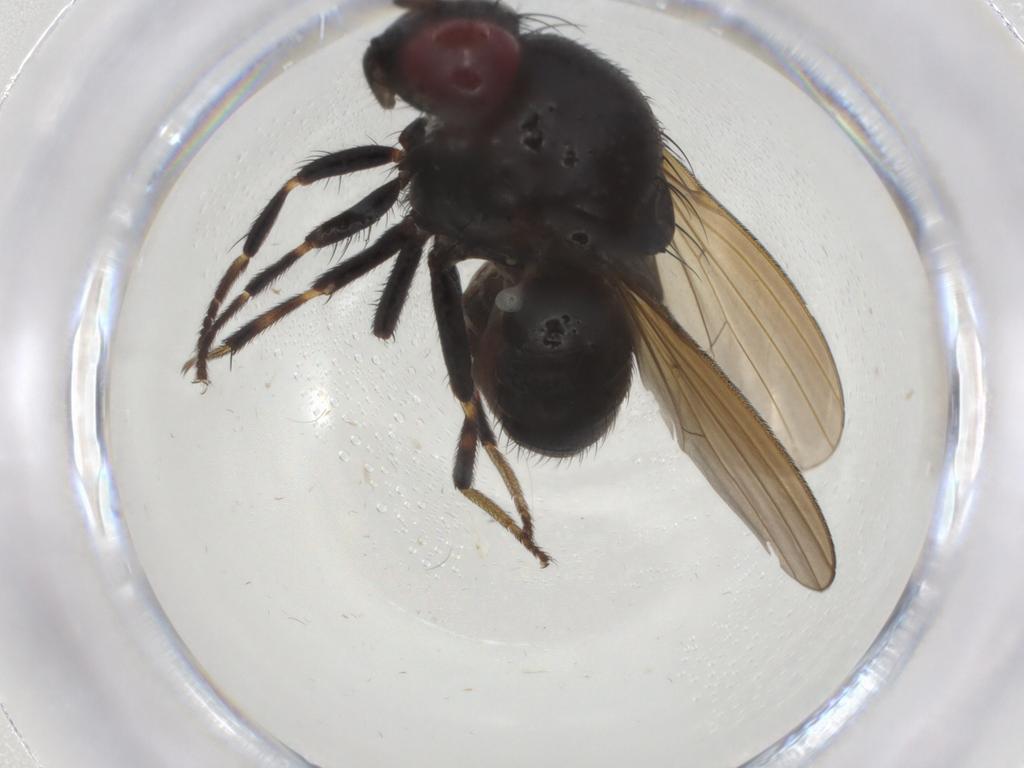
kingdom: Animalia
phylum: Arthropoda
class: Insecta
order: Diptera
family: Lauxaniidae
